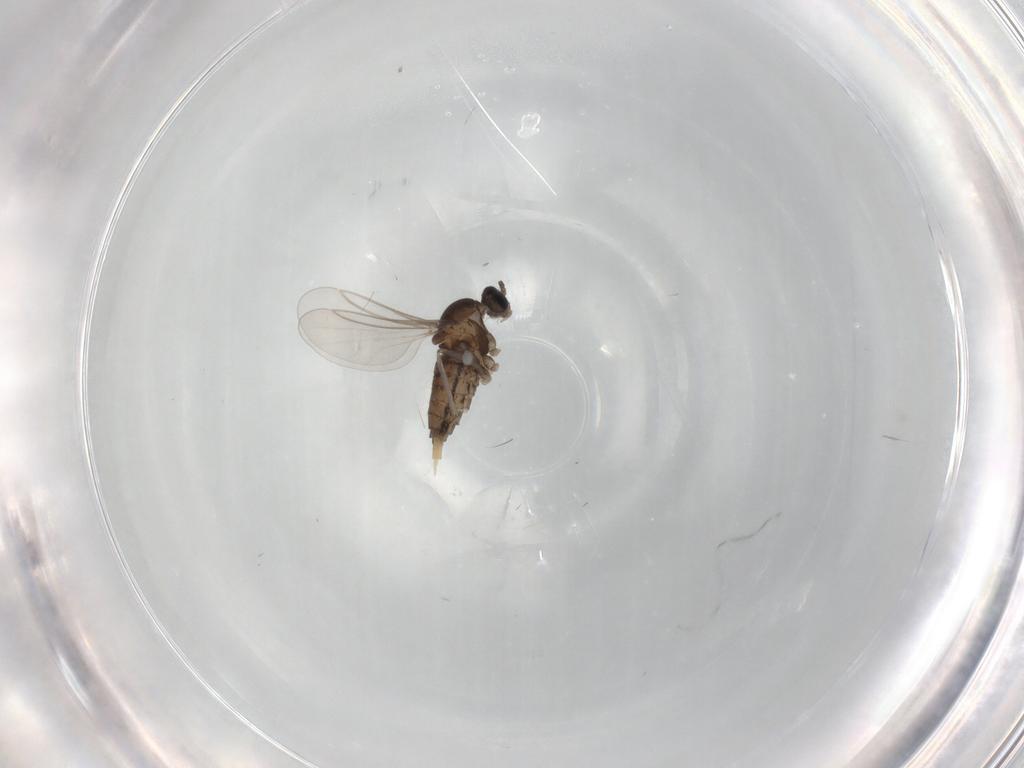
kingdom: Animalia
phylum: Arthropoda
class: Insecta
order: Diptera
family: Cecidomyiidae
